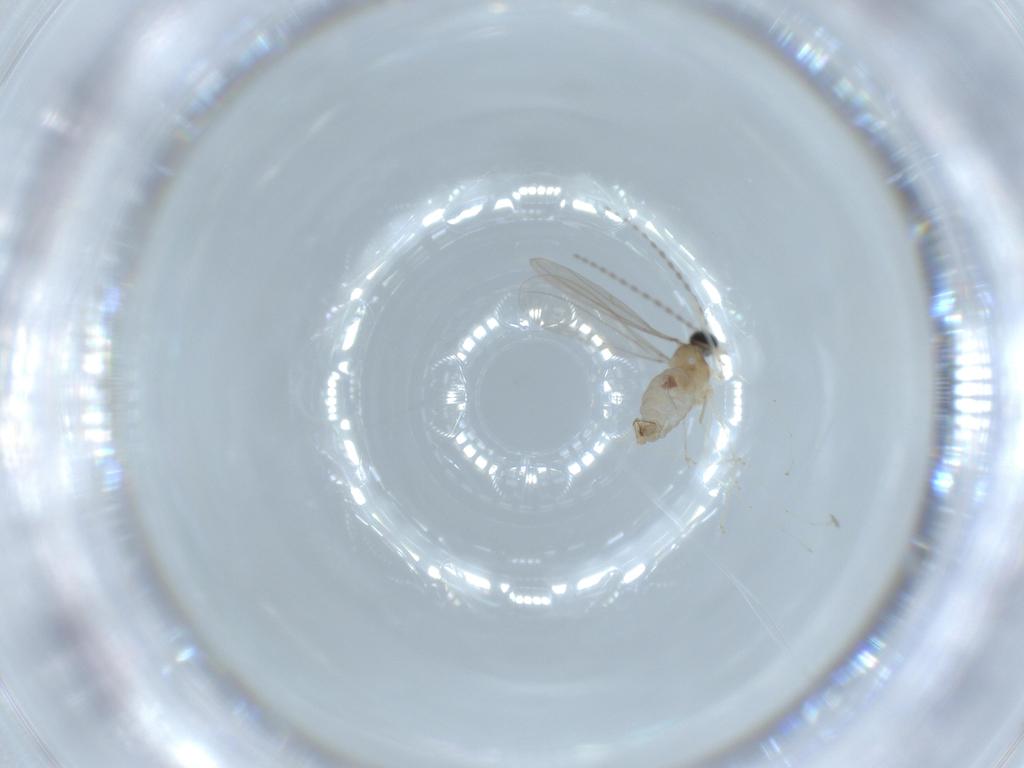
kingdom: Animalia
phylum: Arthropoda
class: Insecta
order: Diptera
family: Cecidomyiidae
